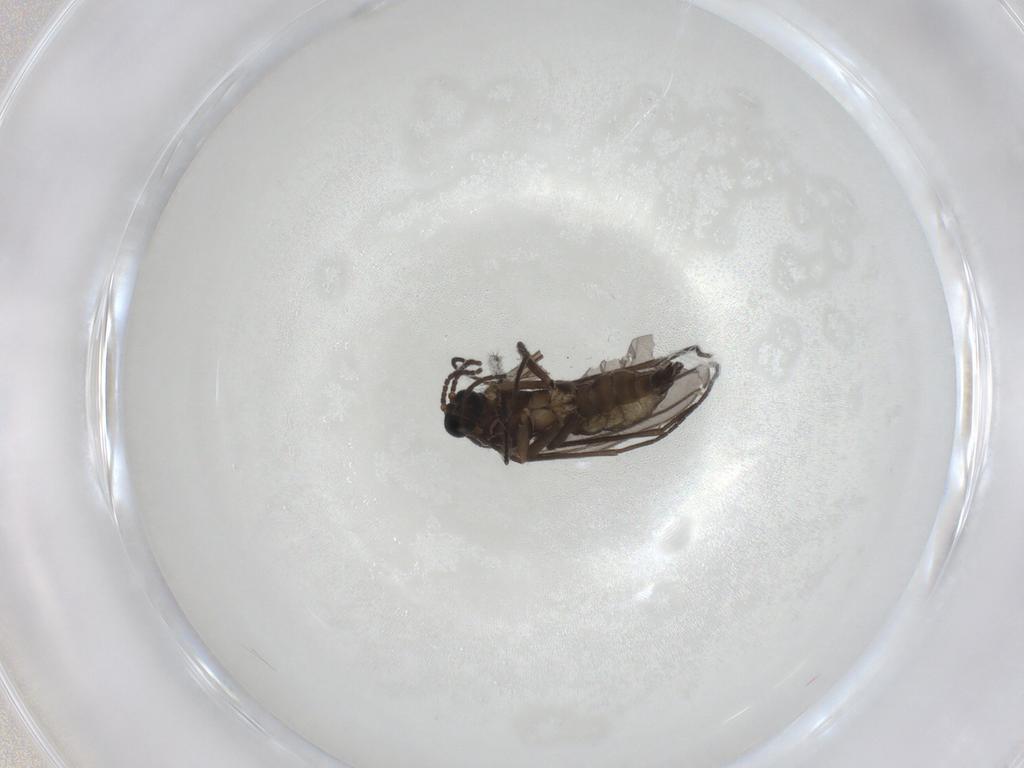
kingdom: Animalia
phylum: Arthropoda
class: Insecta
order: Diptera
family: Sciaridae
